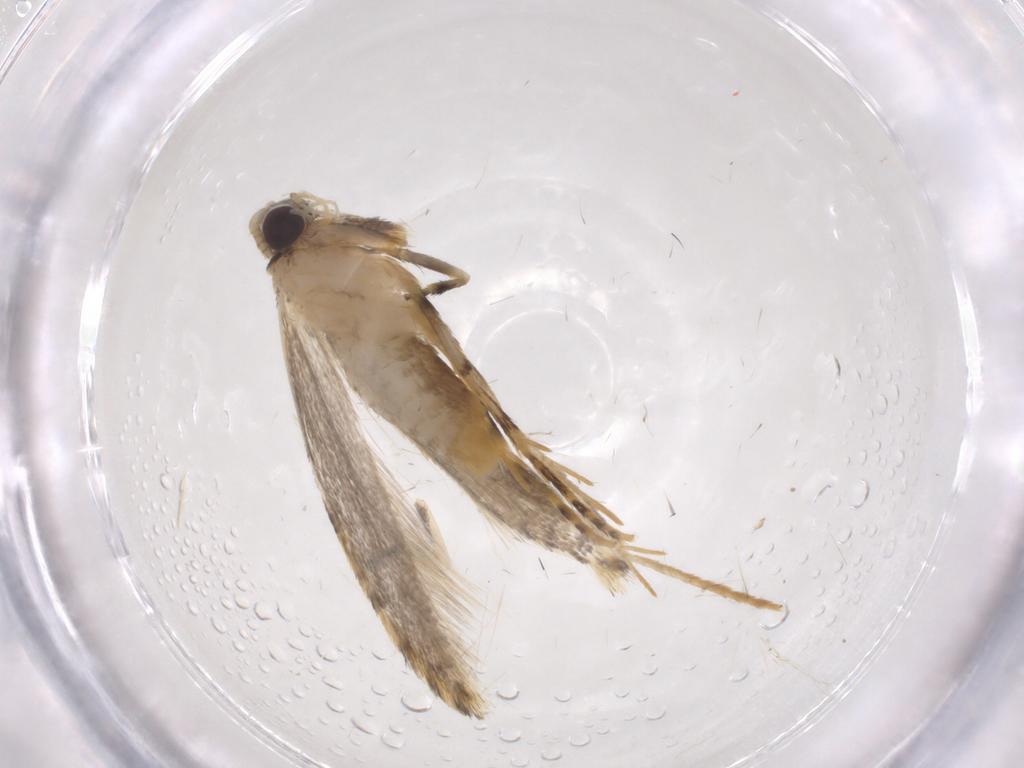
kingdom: Animalia
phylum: Arthropoda
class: Insecta
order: Lepidoptera
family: Tineidae
